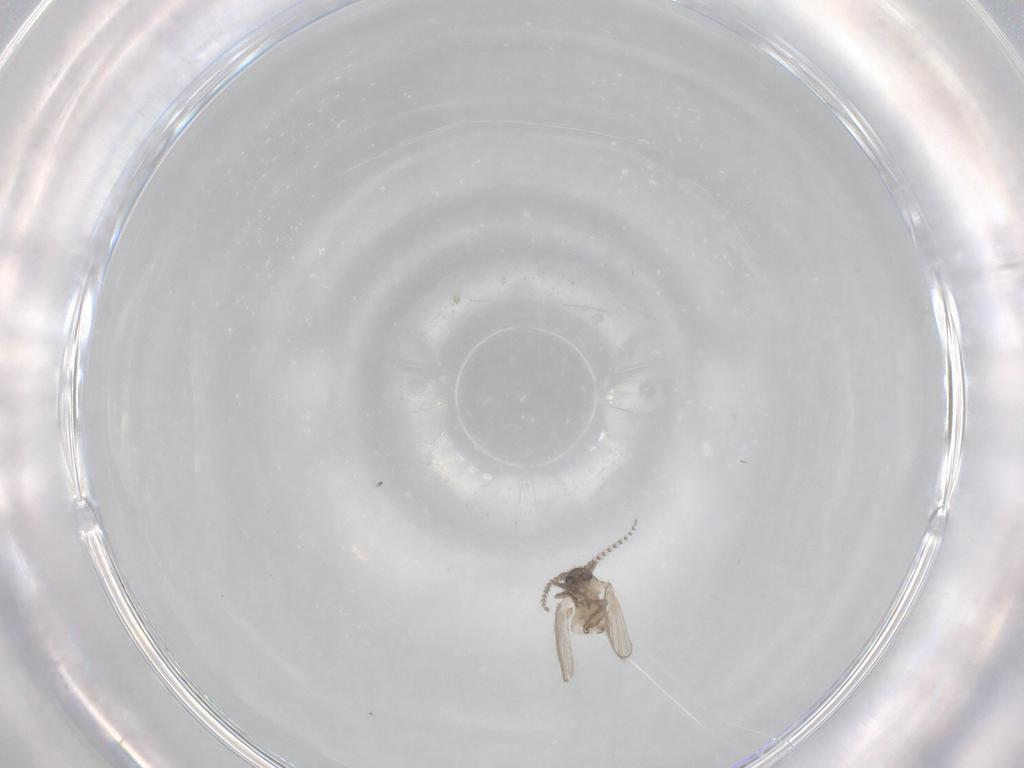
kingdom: Animalia
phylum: Arthropoda
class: Insecta
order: Diptera
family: Psychodidae
